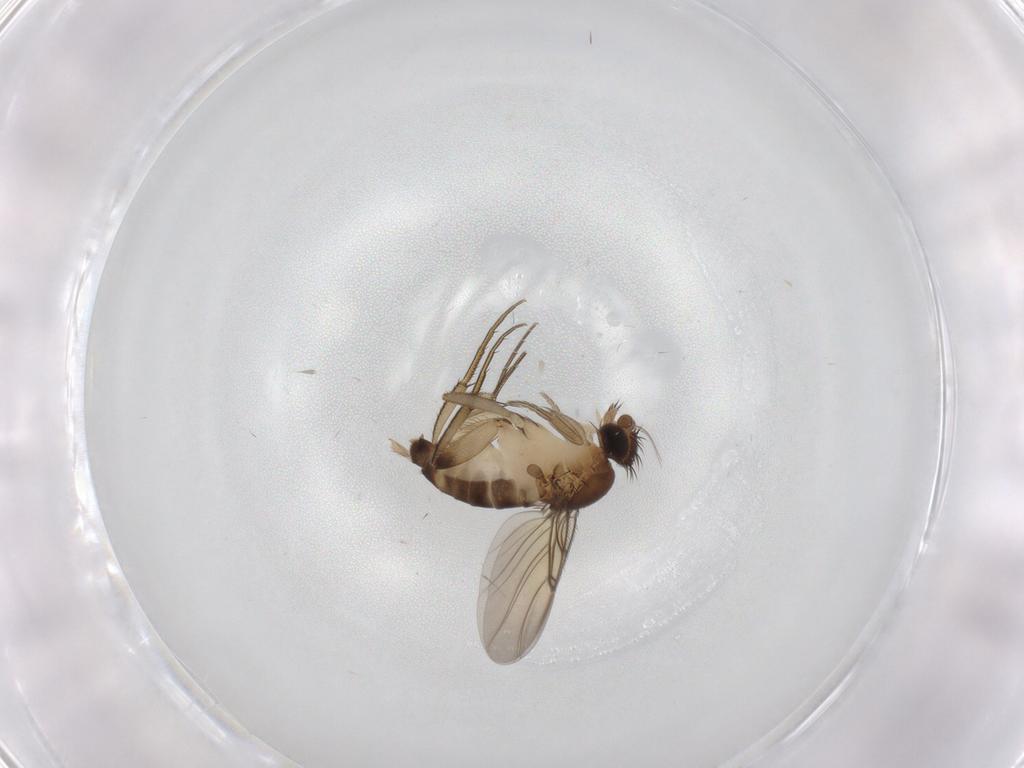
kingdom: Animalia
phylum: Arthropoda
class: Insecta
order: Diptera
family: Phoridae
